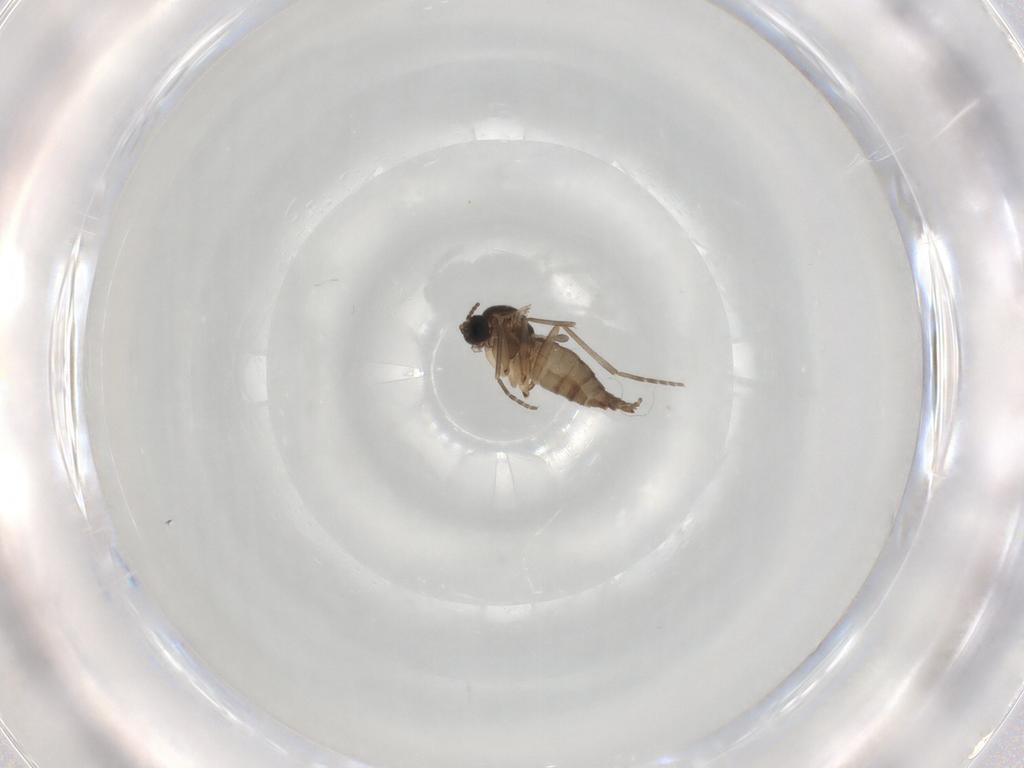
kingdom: Animalia
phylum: Arthropoda
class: Insecta
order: Diptera
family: Sciaridae
